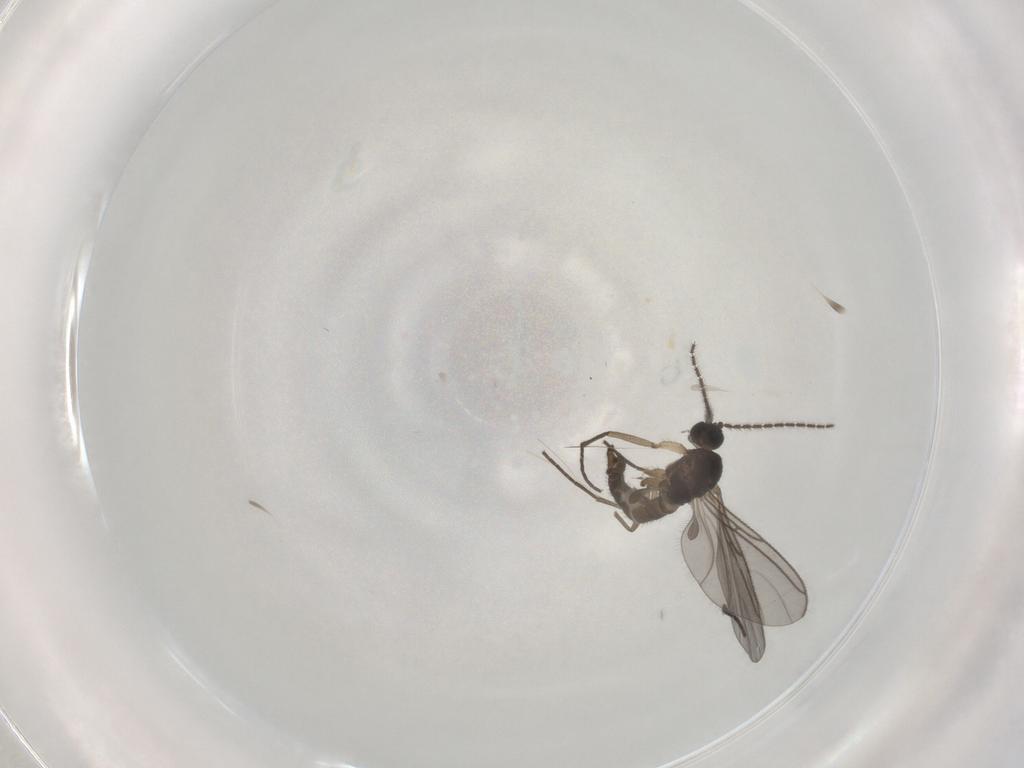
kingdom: Animalia
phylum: Arthropoda
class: Insecta
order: Diptera
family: Sciaridae
